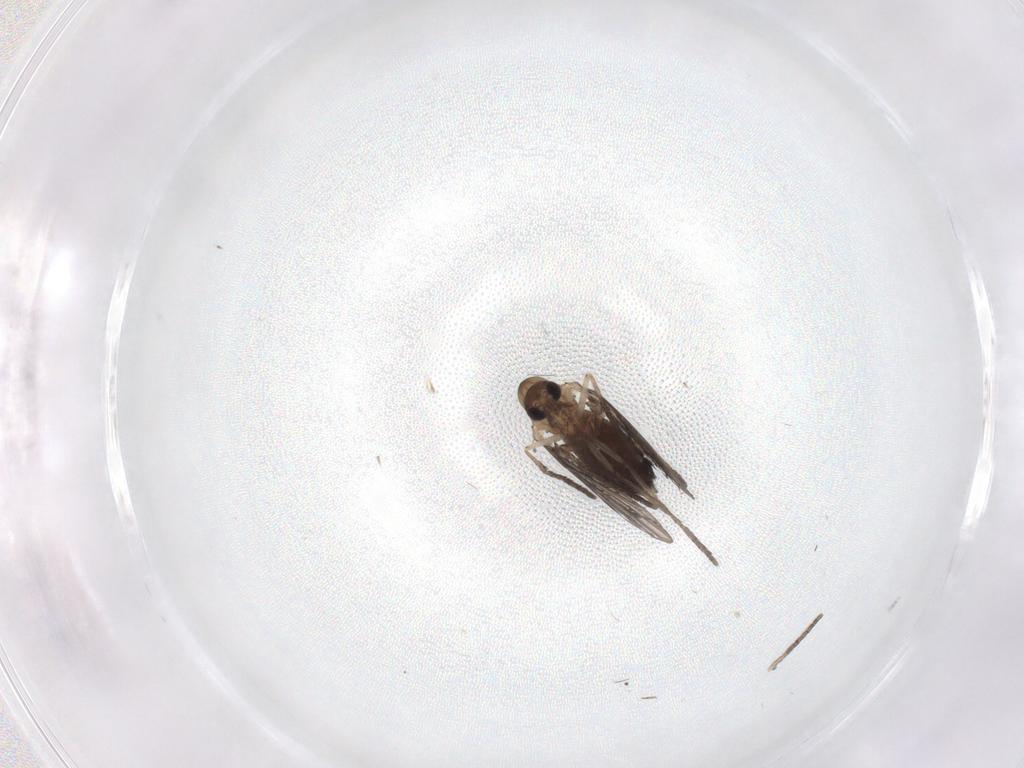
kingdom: Animalia
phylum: Arthropoda
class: Insecta
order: Diptera
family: Psychodidae
